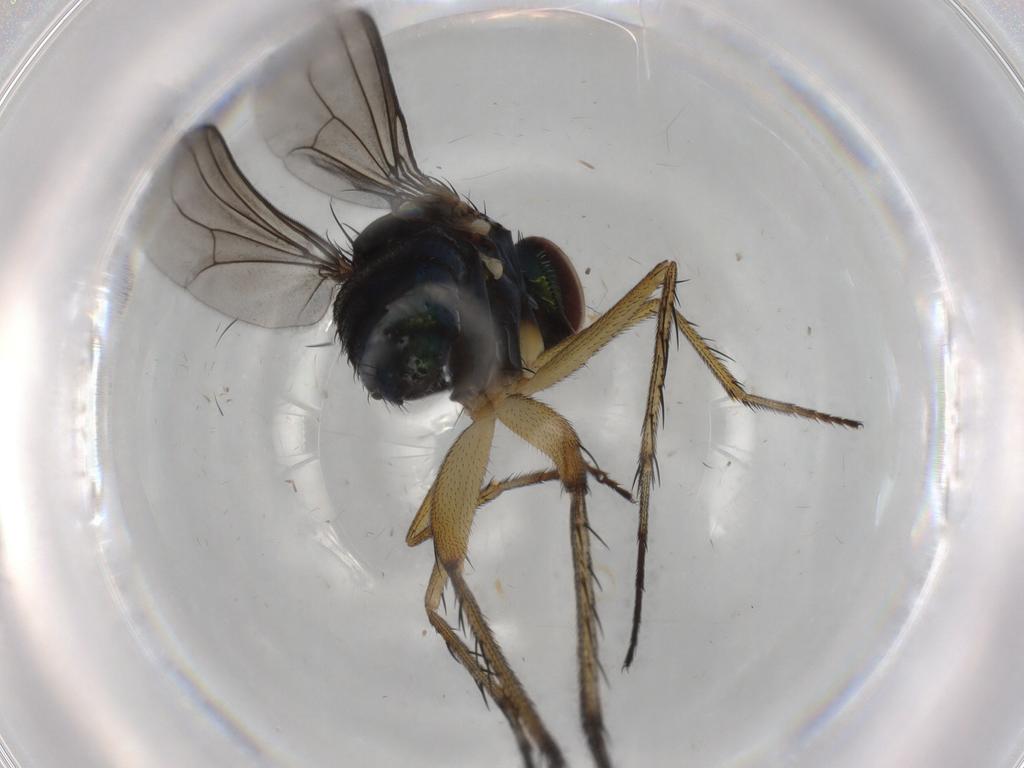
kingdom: Animalia
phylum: Arthropoda
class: Insecta
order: Diptera
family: Dolichopodidae
